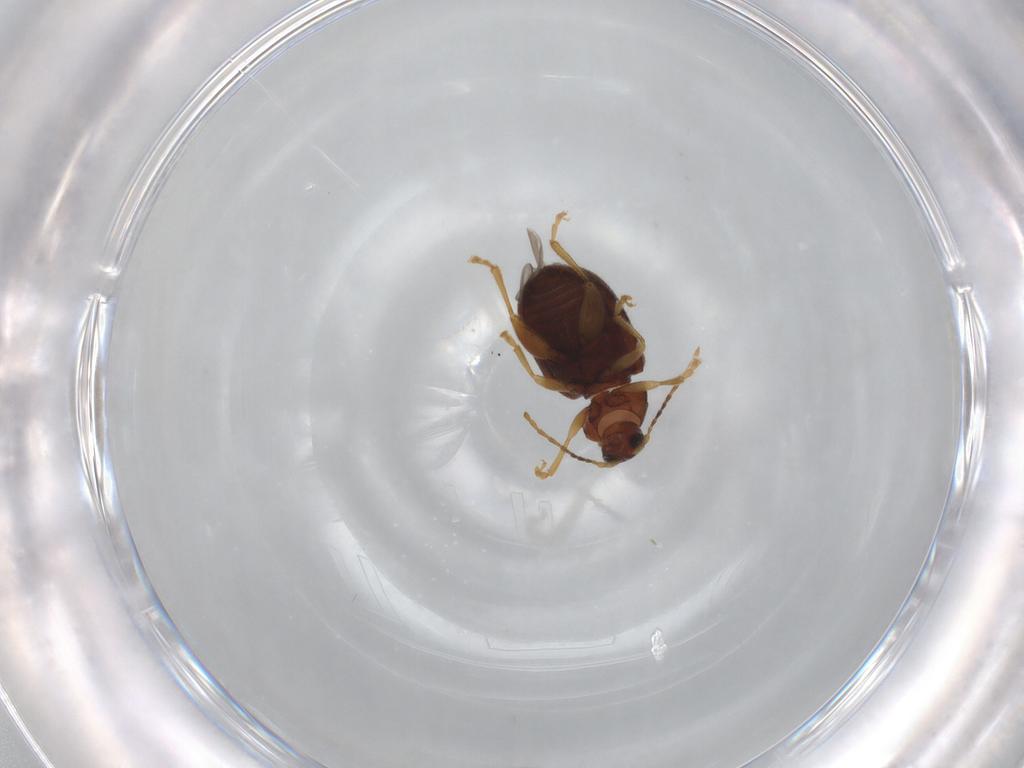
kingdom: Animalia
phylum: Arthropoda
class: Insecta
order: Coleoptera
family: Chrysomelidae
